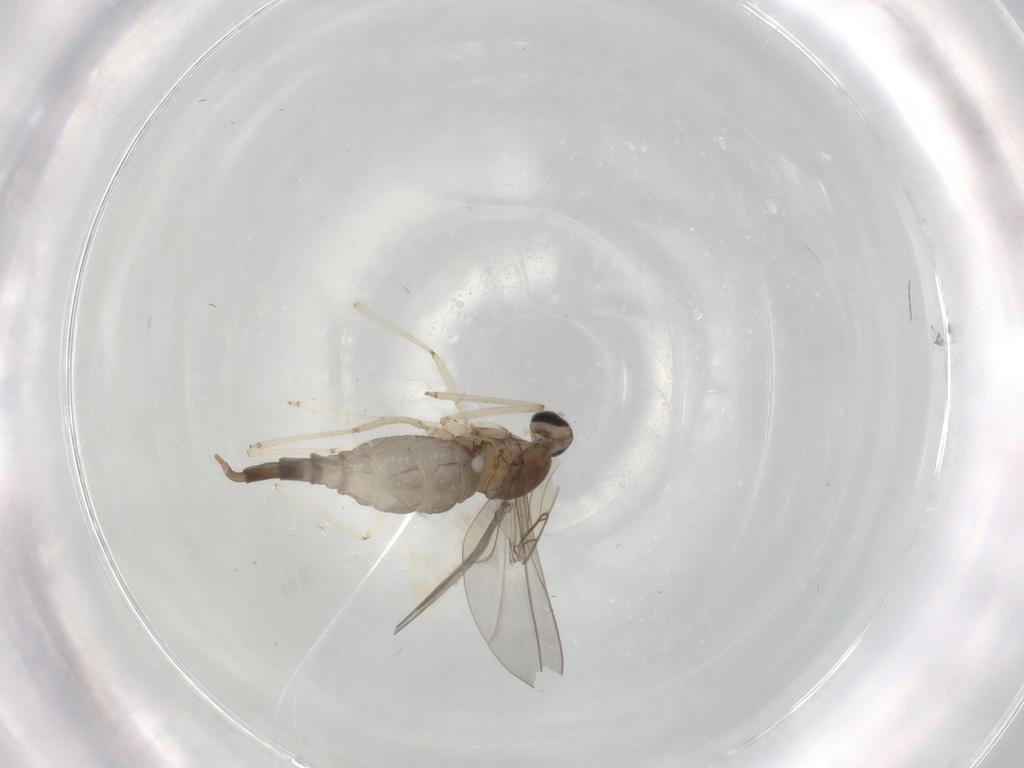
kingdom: Animalia
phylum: Arthropoda
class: Insecta
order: Diptera
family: Cecidomyiidae
